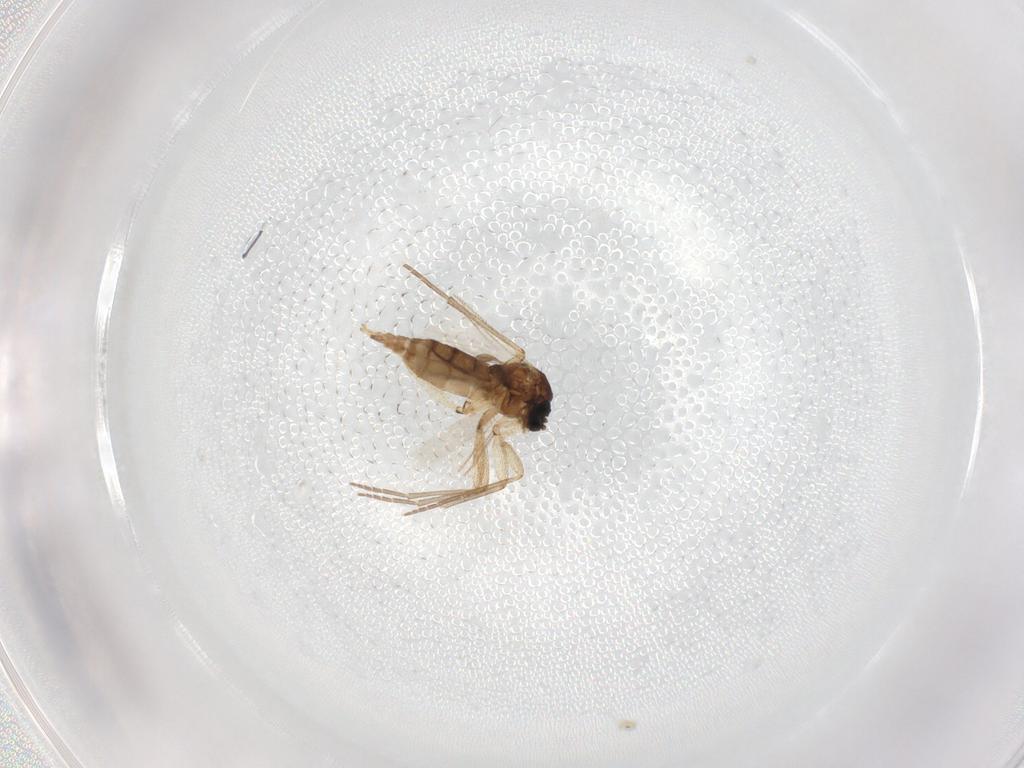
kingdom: Animalia
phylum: Arthropoda
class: Insecta
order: Diptera
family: Sciaridae
